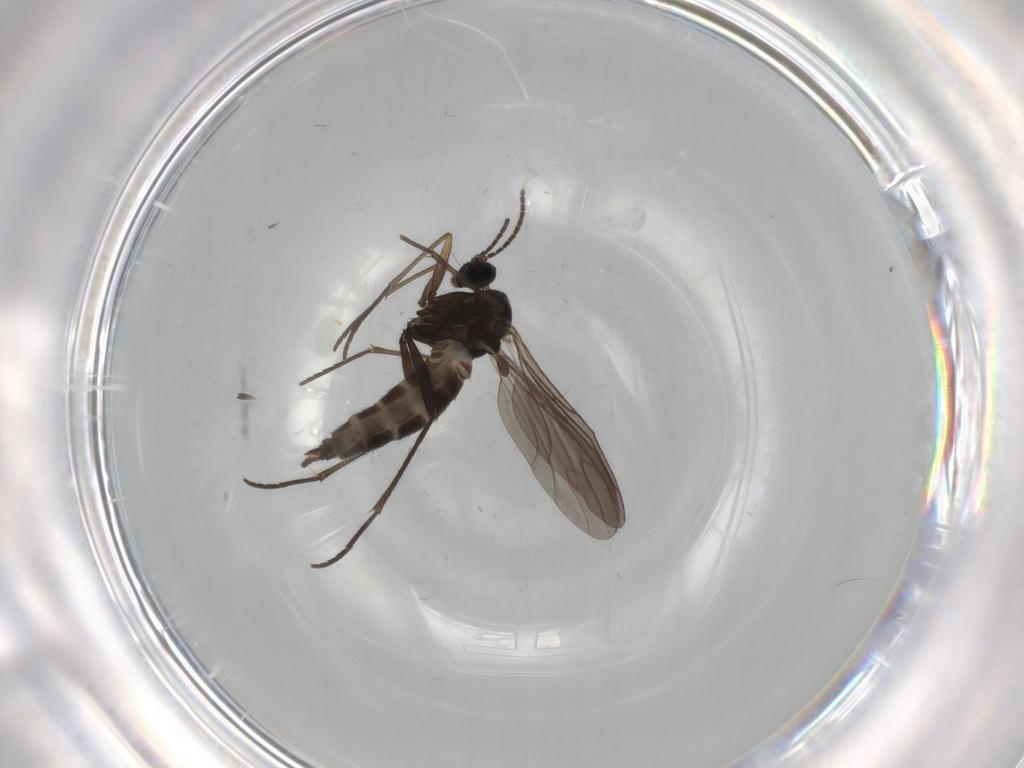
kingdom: Animalia
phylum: Arthropoda
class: Insecta
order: Diptera
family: Sciaridae
